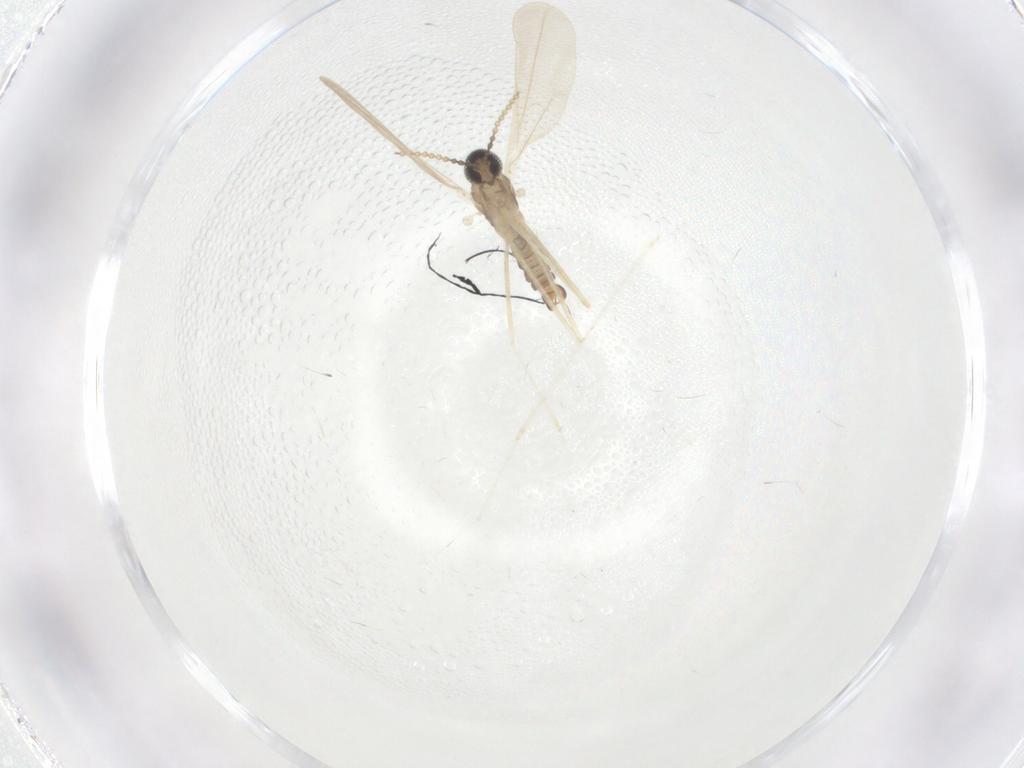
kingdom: Animalia
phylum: Arthropoda
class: Insecta
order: Diptera
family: Cecidomyiidae
